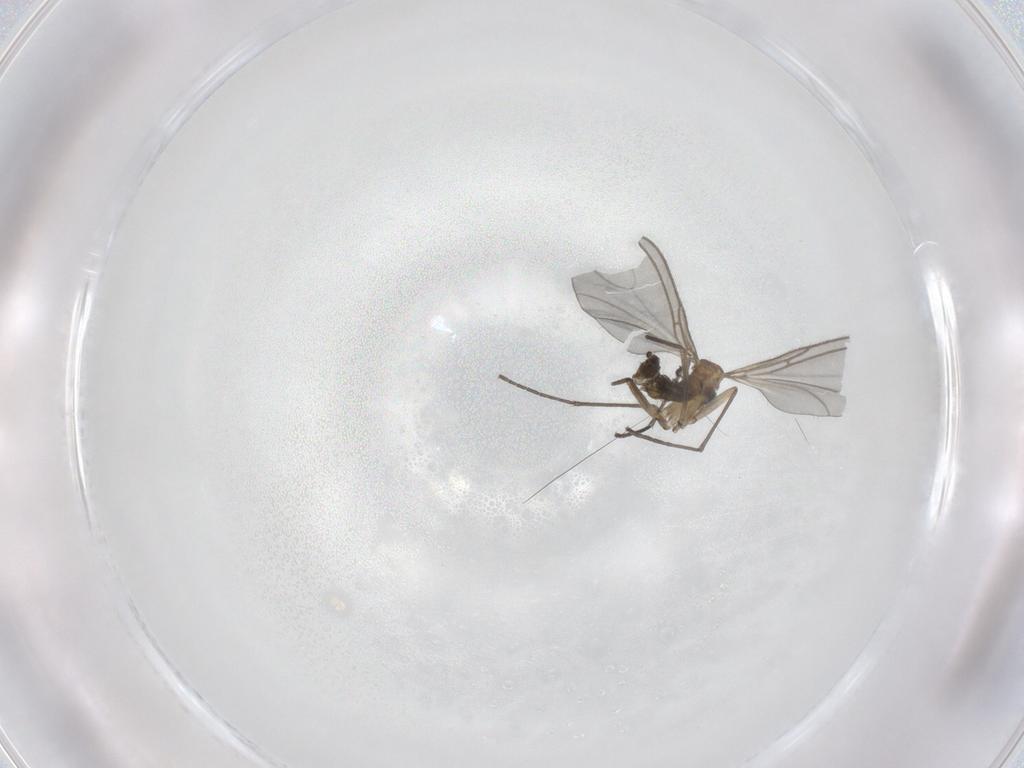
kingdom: Animalia
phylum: Arthropoda
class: Insecta
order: Diptera
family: Sciaridae
